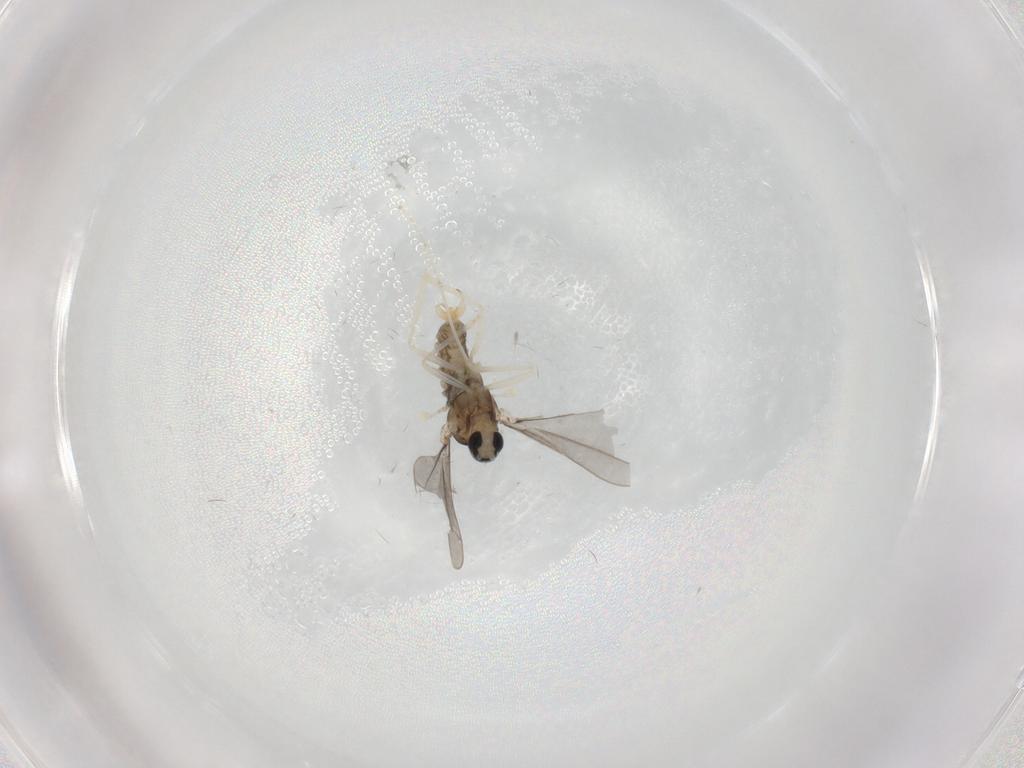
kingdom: Animalia
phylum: Arthropoda
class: Insecta
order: Diptera
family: Cecidomyiidae
